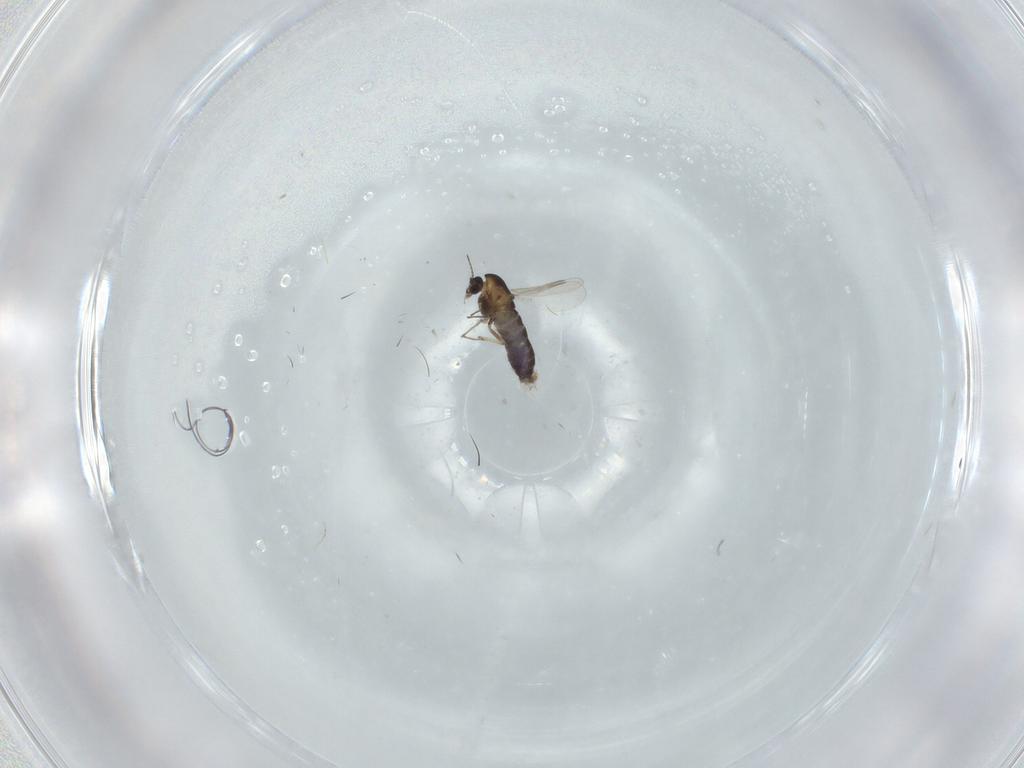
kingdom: Animalia
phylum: Arthropoda
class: Insecta
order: Diptera
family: Chironomidae
